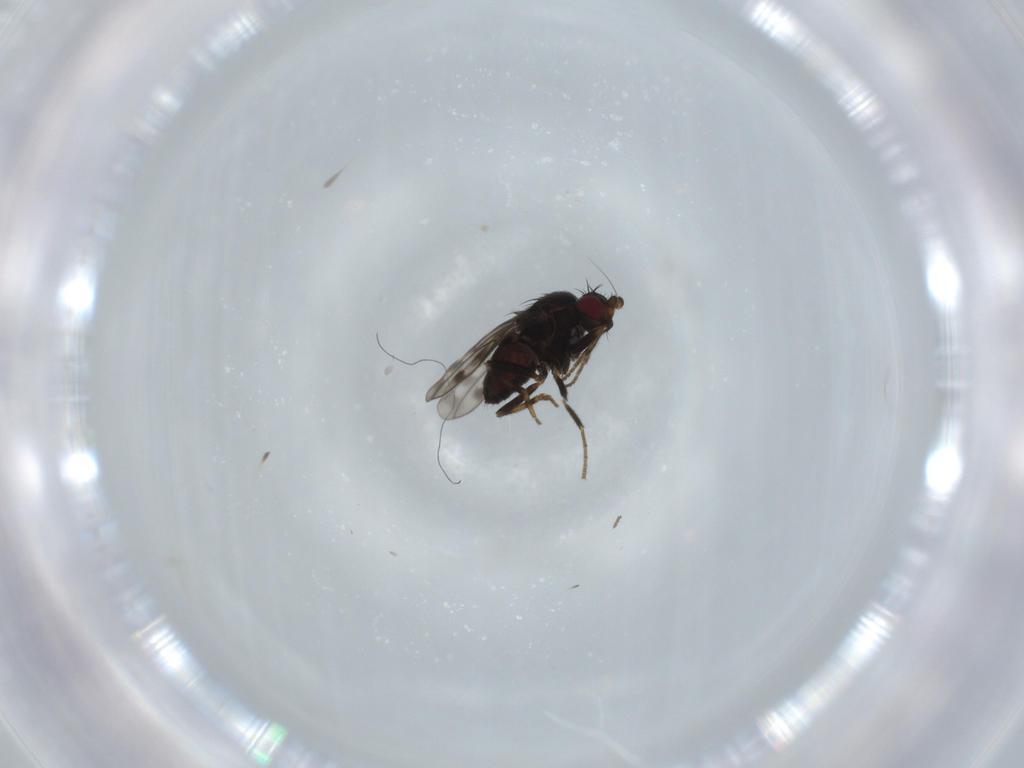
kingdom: Animalia
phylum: Arthropoda
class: Insecta
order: Diptera
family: Sphaeroceridae
